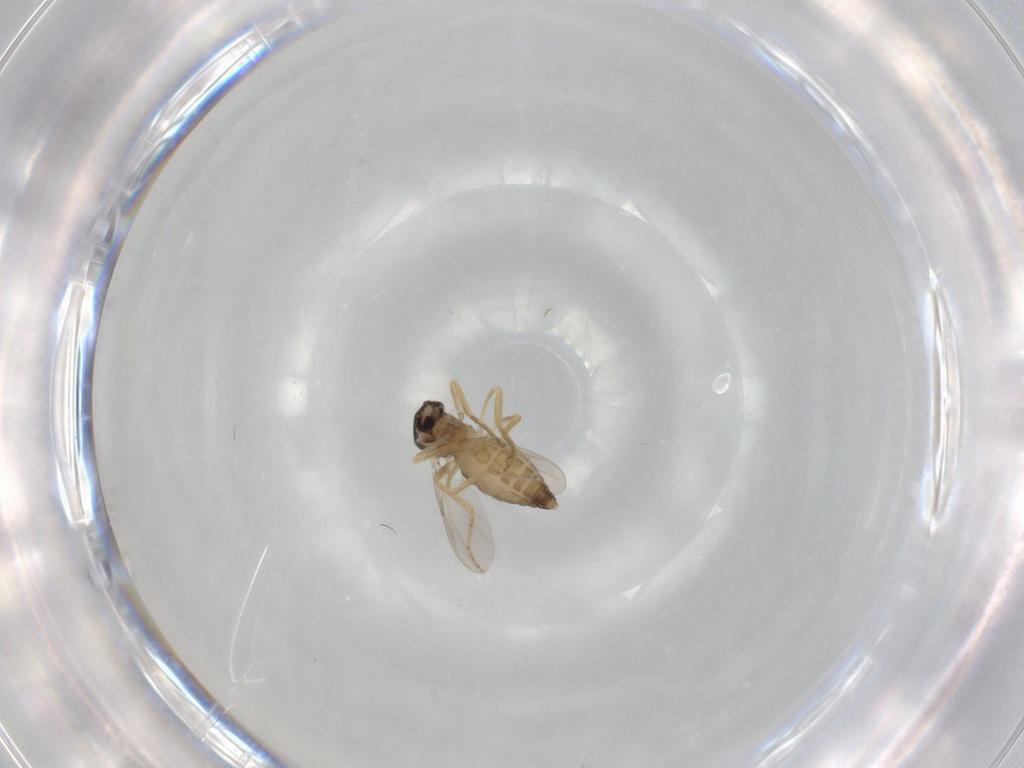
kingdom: Animalia
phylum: Arthropoda
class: Insecta
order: Diptera
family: Ceratopogonidae
